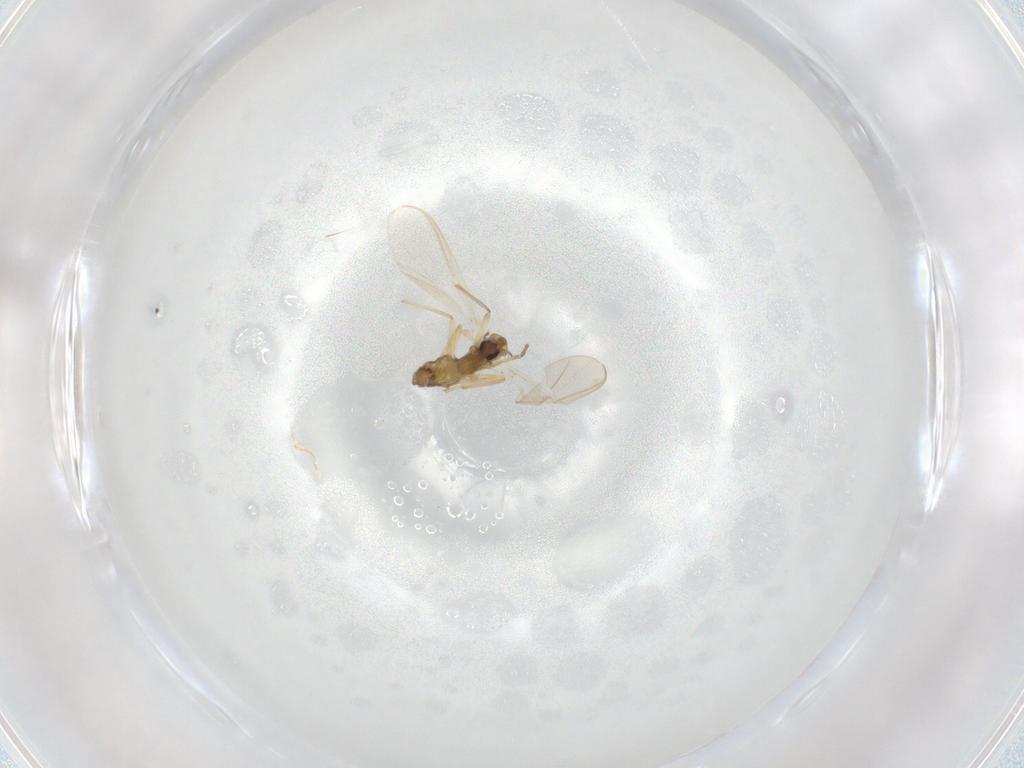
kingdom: Animalia
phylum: Arthropoda
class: Insecta
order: Diptera
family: Chironomidae
